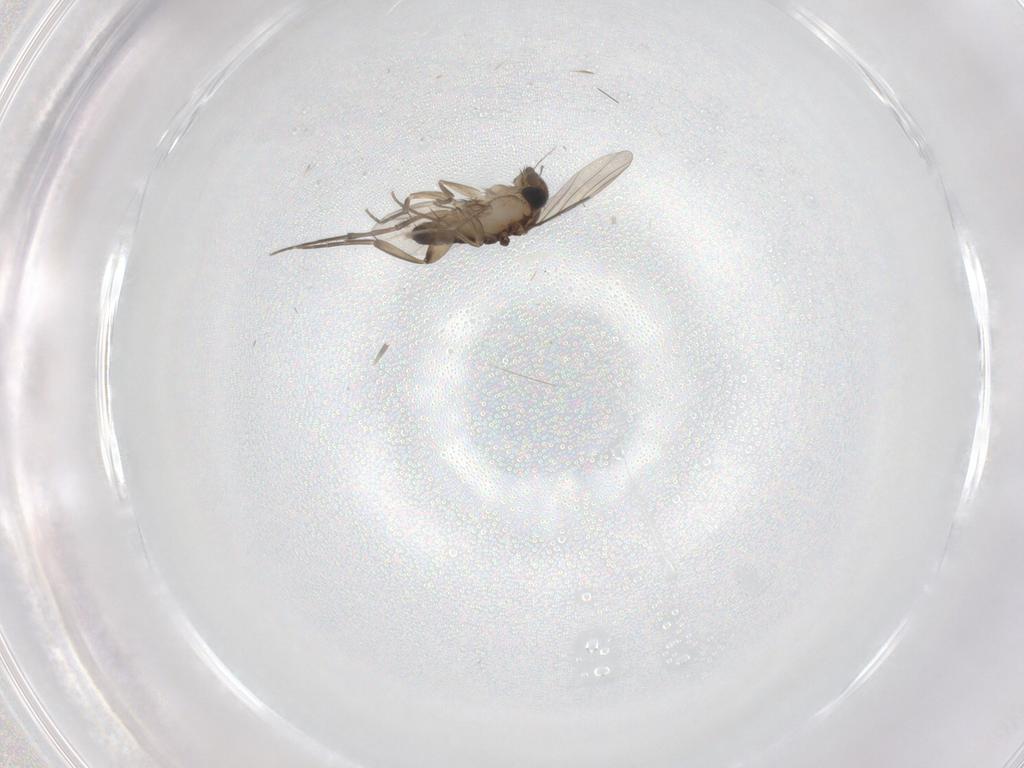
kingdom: Animalia
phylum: Arthropoda
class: Insecta
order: Diptera
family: Phoridae
